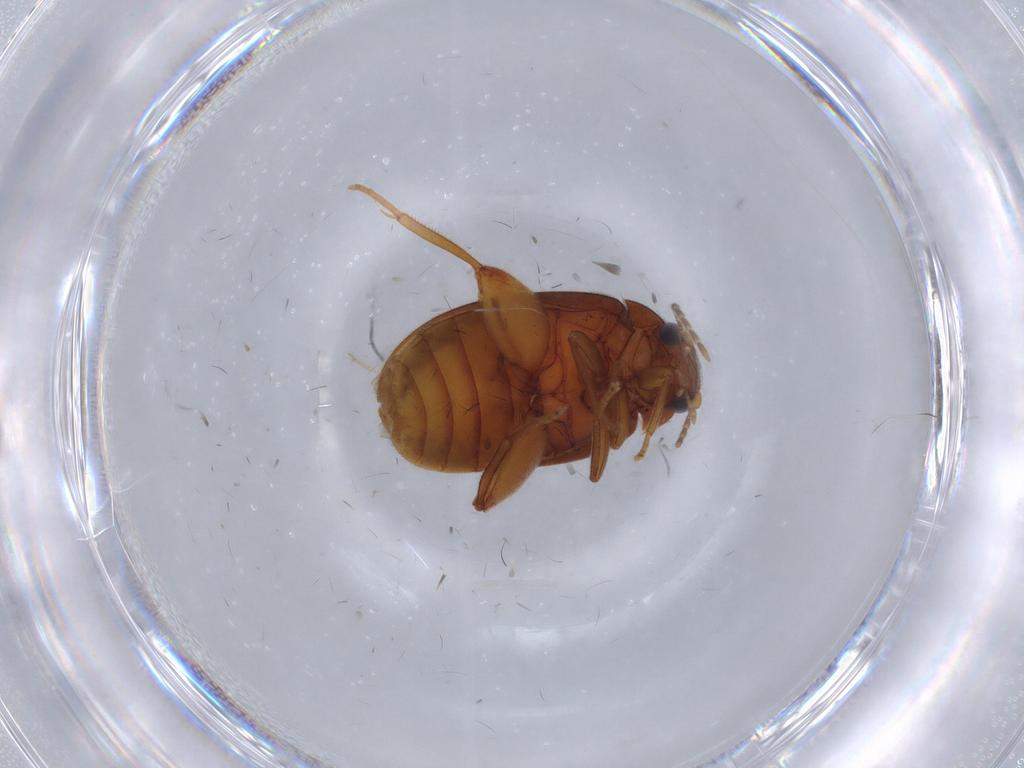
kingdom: Animalia
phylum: Arthropoda
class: Insecta
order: Coleoptera
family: Scirtidae
